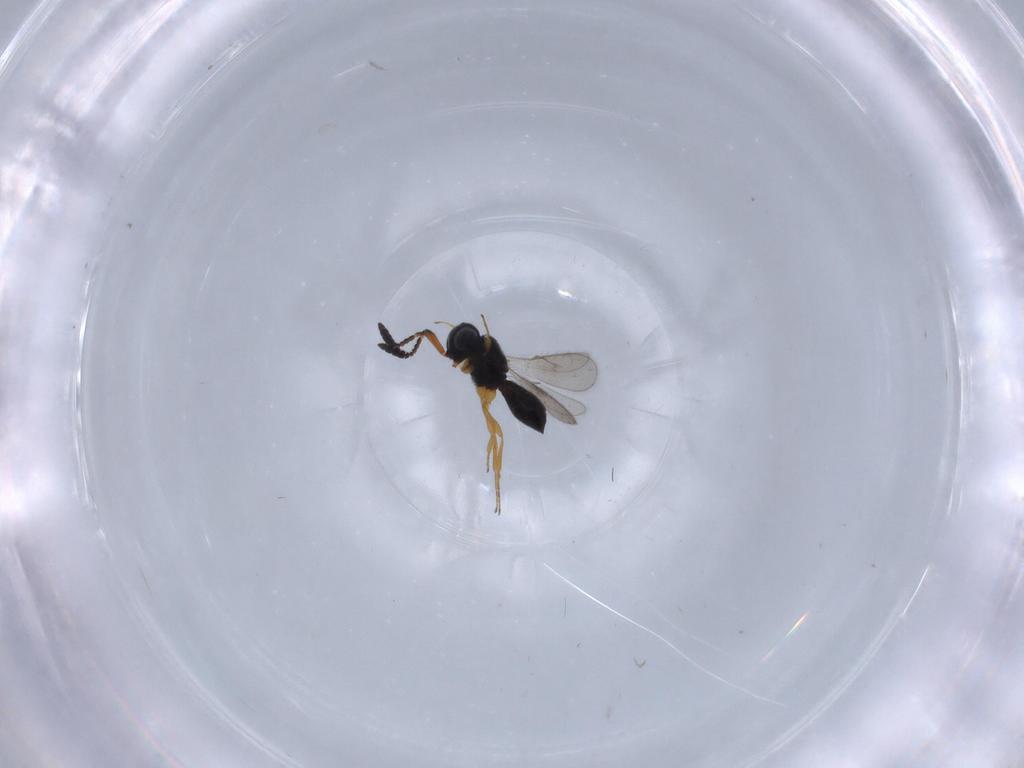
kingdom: Animalia
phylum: Arthropoda
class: Insecta
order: Hymenoptera
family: Scelionidae
